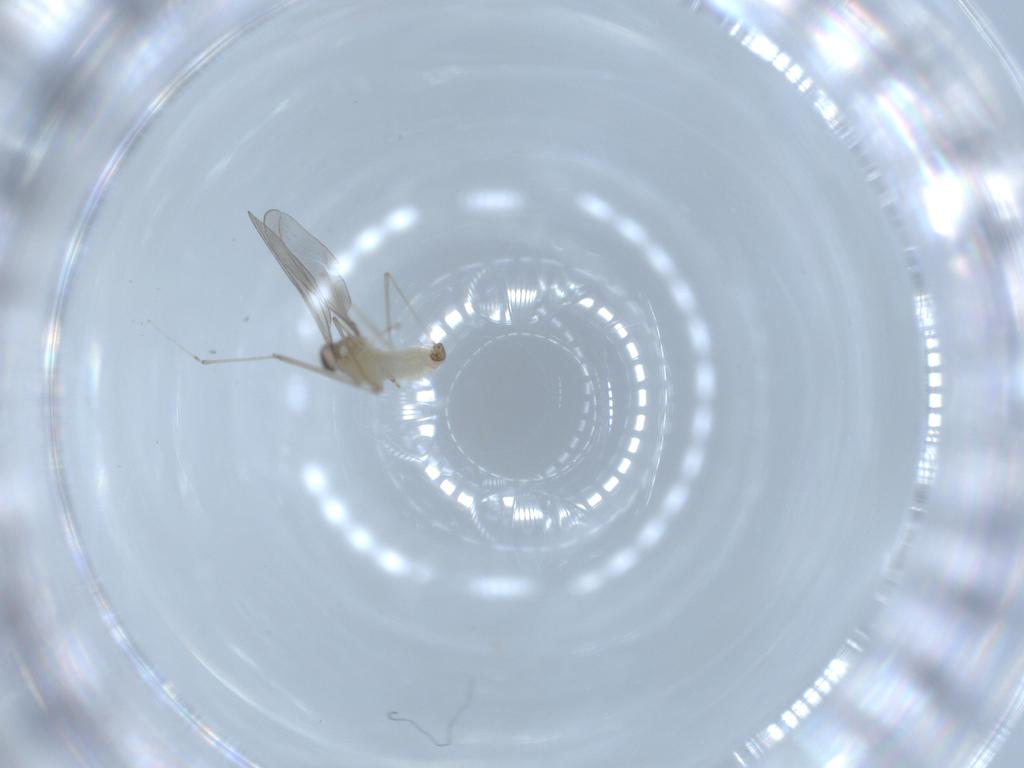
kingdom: Animalia
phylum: Arthropoda
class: Insecta
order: Diptera
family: Cecidomyiidae
